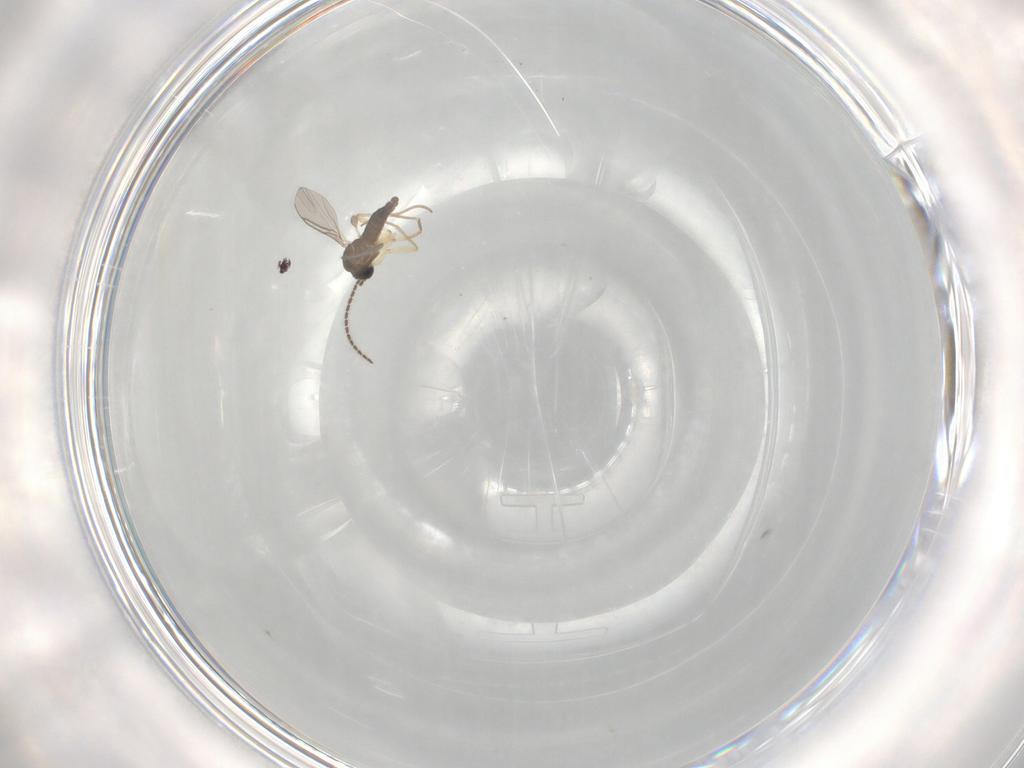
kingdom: Animalia
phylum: Arthropoda
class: Insecta
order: Diptera
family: Sciaridae
